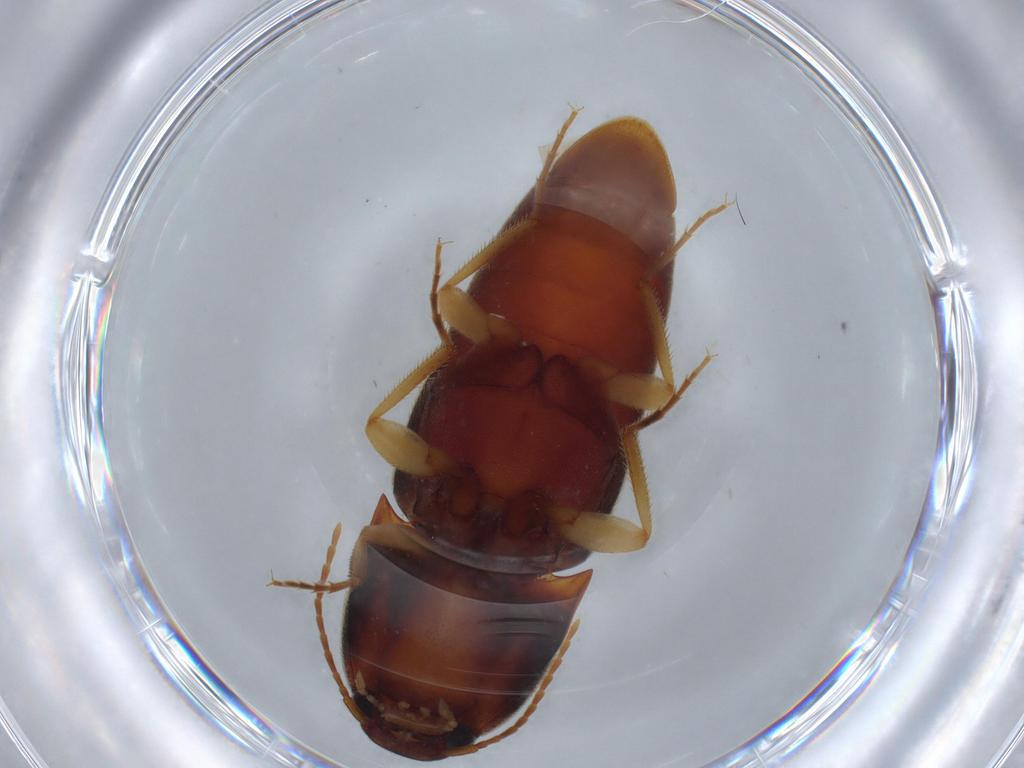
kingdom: Animalia
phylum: Arthropoda
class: Insecta
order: Coleoptera
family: Elateridae
